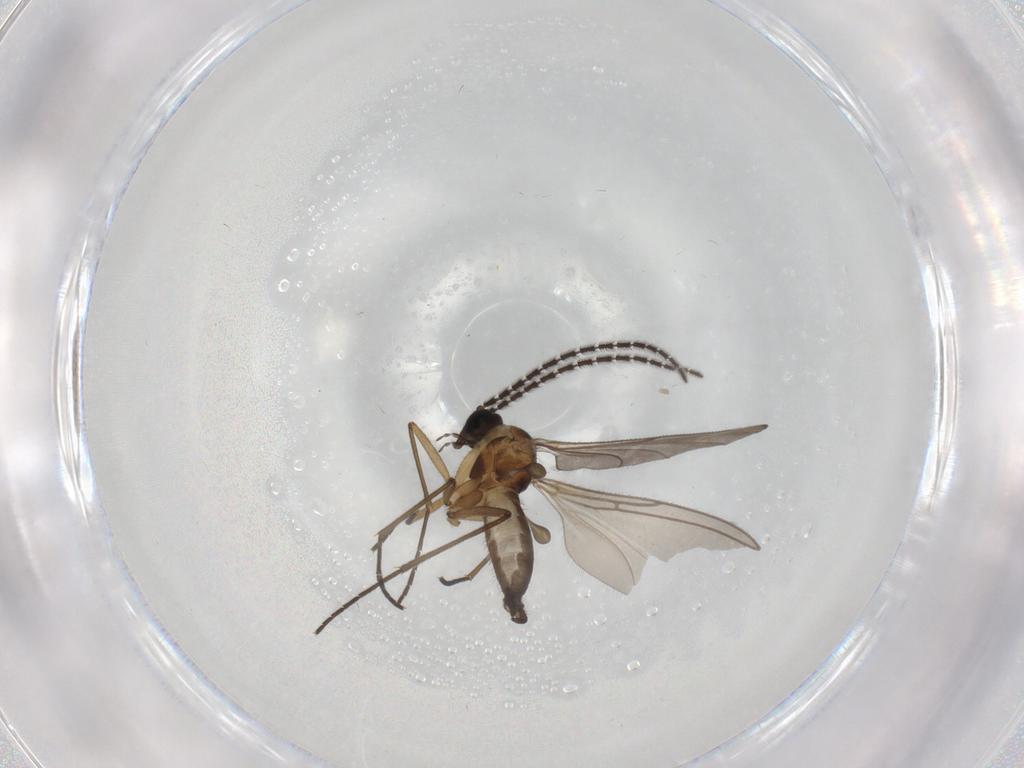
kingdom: Animalia
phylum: Arthropoda
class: Insecta
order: Diptera
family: Sciaridae
